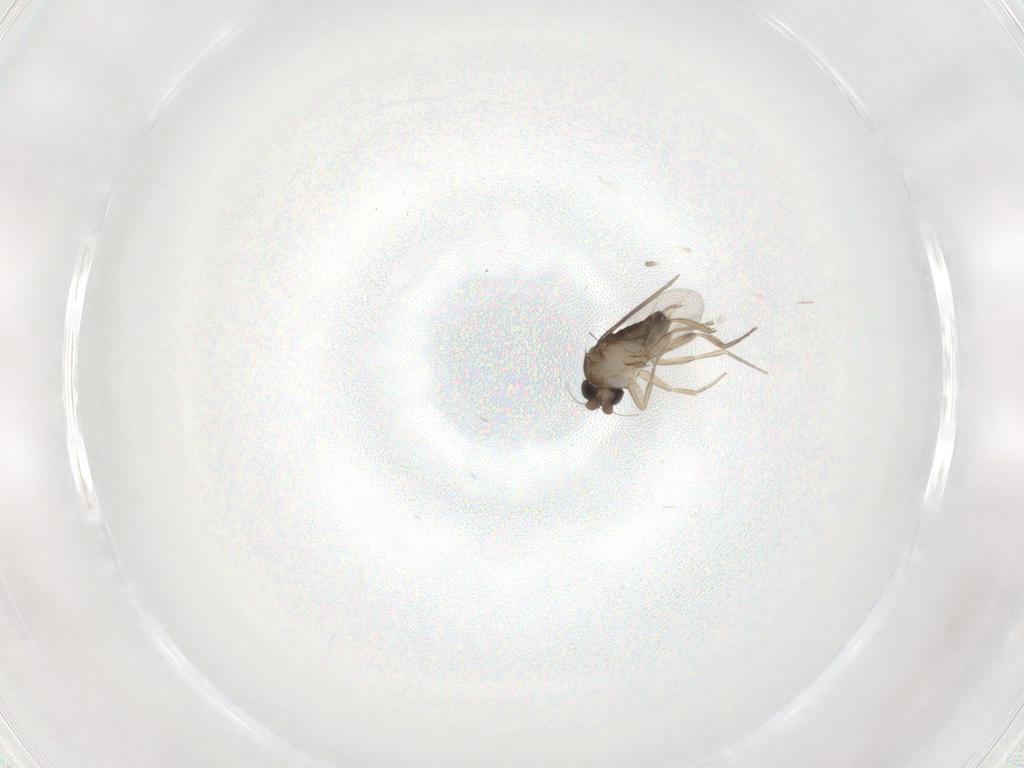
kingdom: Animalia
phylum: Arthropoda
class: Insecta
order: Diptera
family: Phoridae
